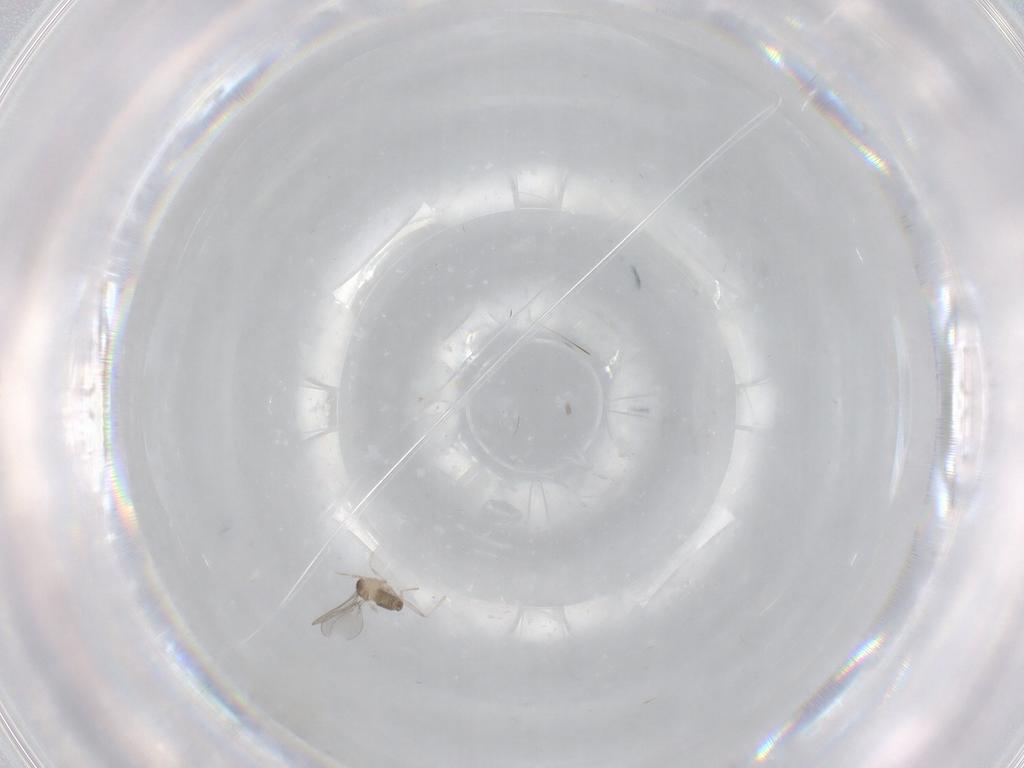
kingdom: Animalia
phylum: Arthropoda
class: Insecta
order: Diptera
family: Cecidomyiidae
